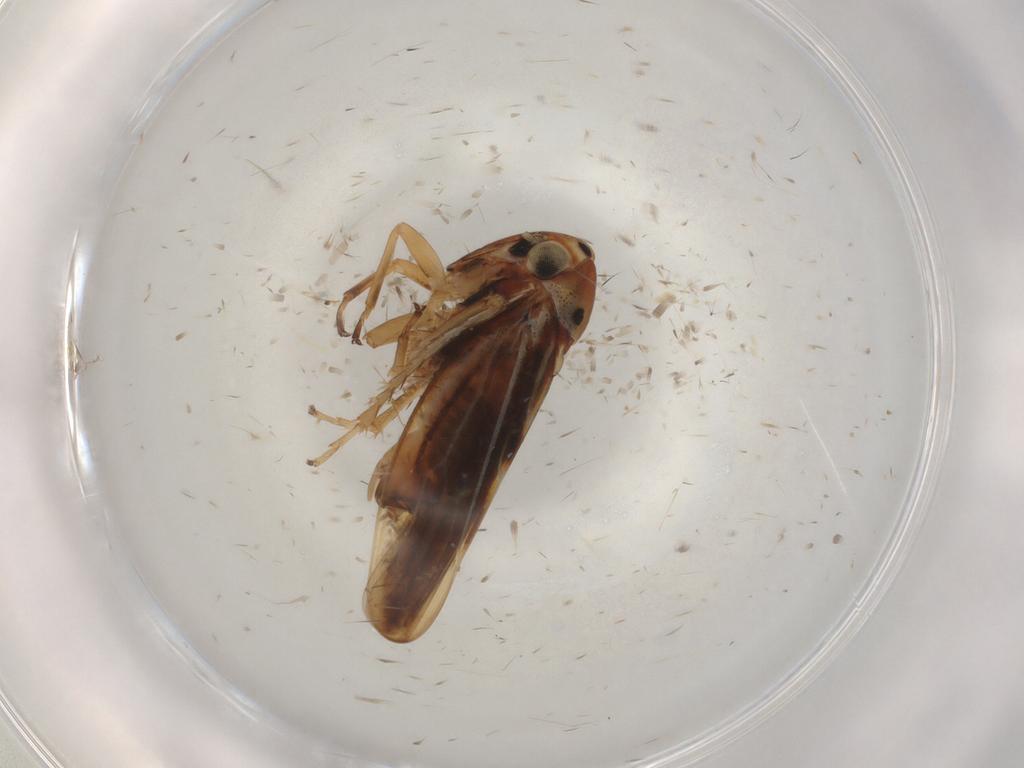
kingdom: Animalia
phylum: Arthropoda
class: Insecta
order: Hemiptera
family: Cicadellidae
